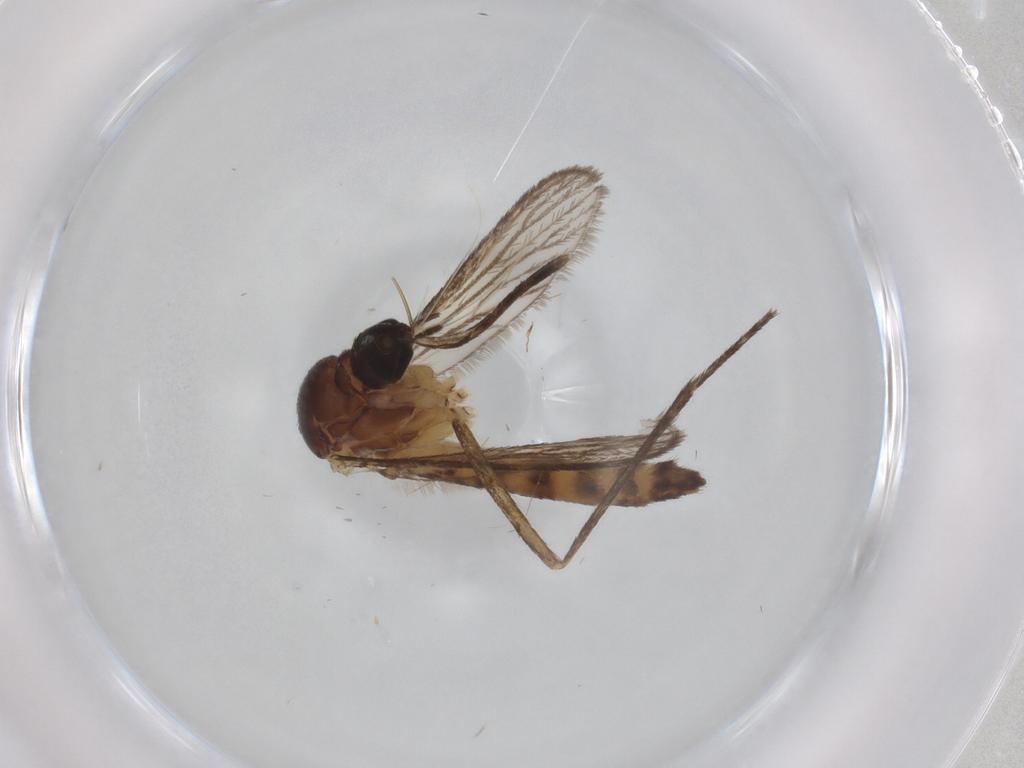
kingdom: Animalia
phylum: Arthropoda
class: Insecta
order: Diptera
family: Culicidae
